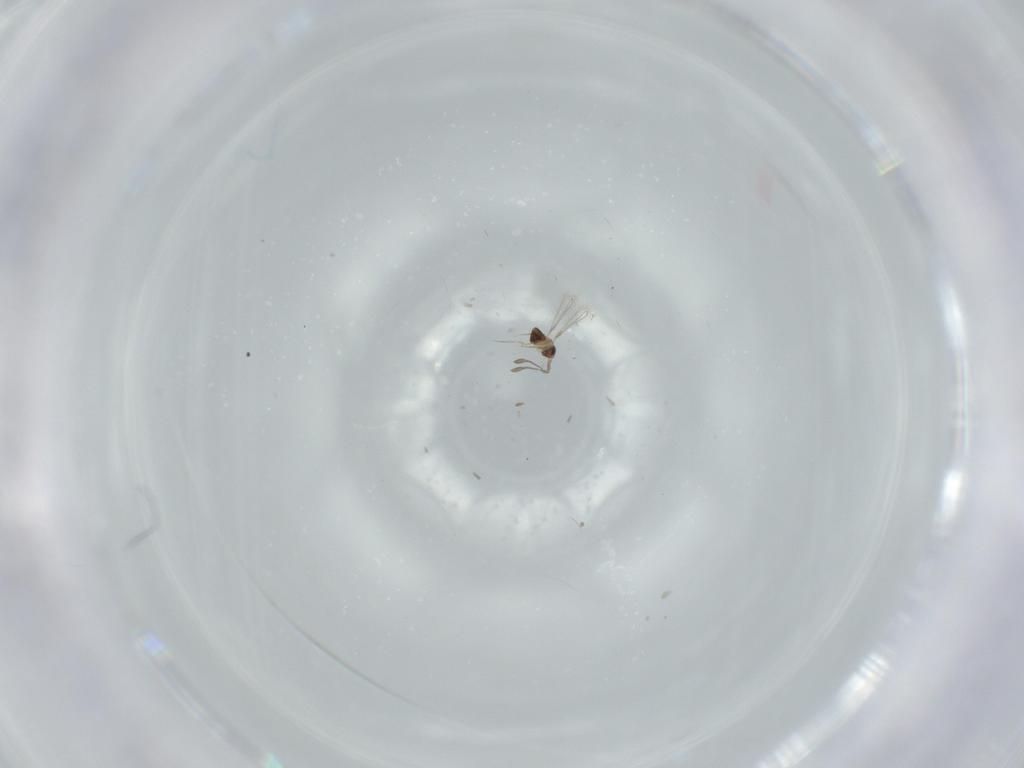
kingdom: Animalia
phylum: Arthropoda
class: Insecta
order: Hymenoptera
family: Mymaridae
